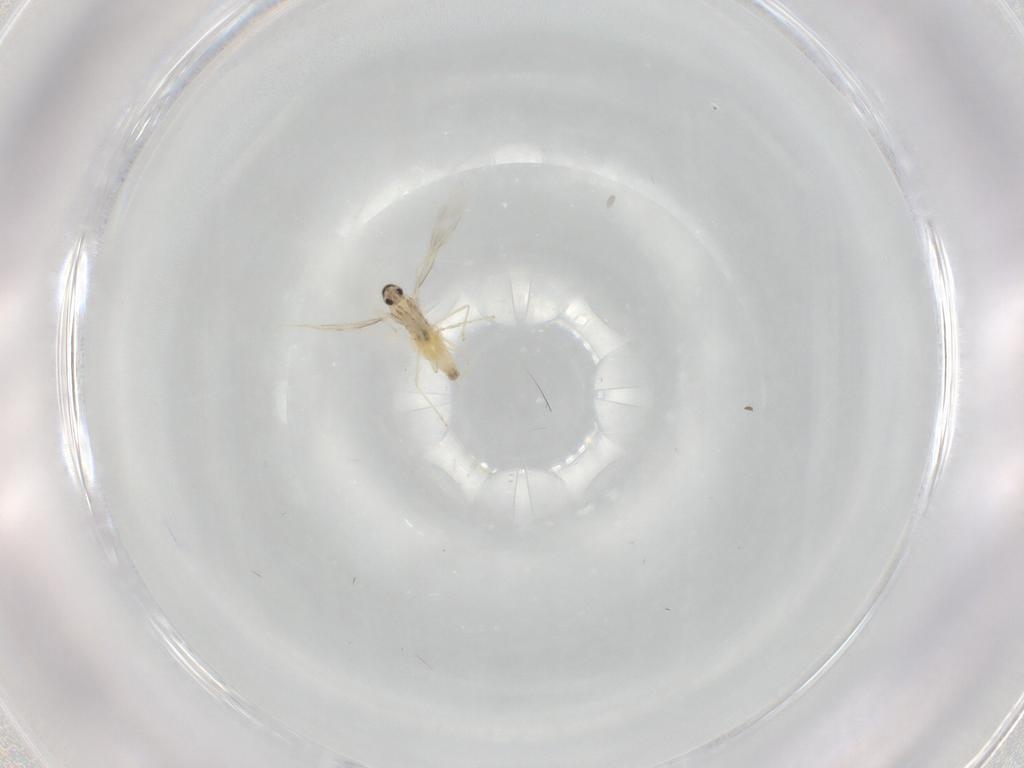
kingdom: Animalia
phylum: Arthropoda
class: Insecta
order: Diptera
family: Cecidomyiidae
